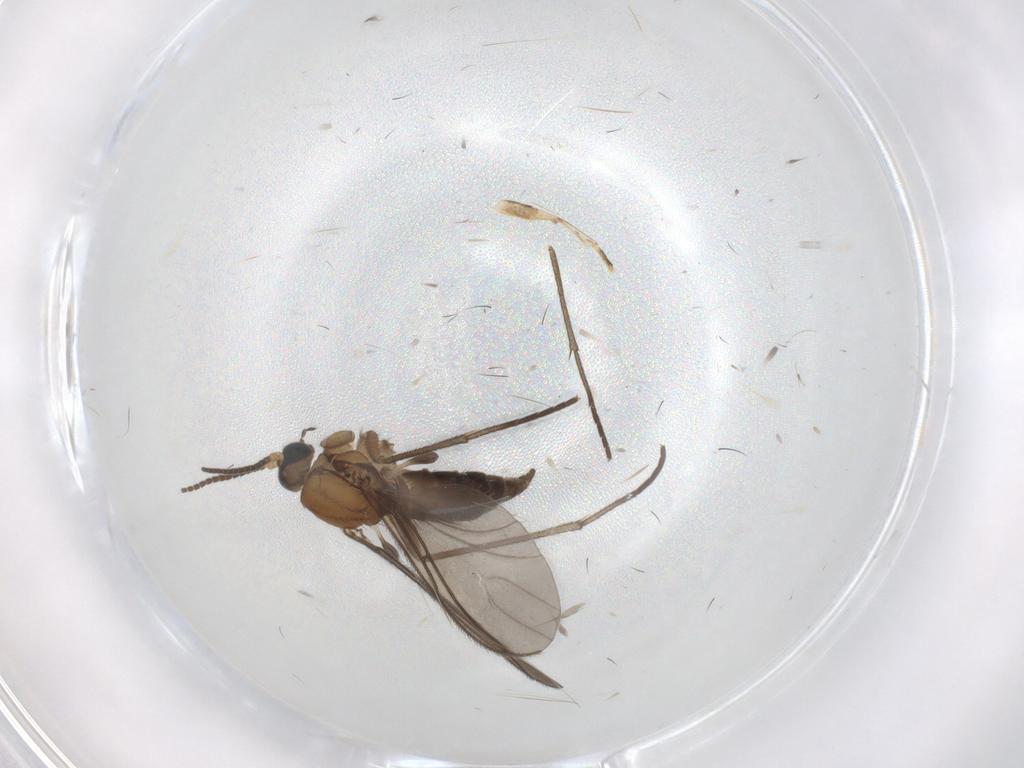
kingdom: Animalia
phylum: Arthropoda
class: Insecta
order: Diptera
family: Sciaridae
